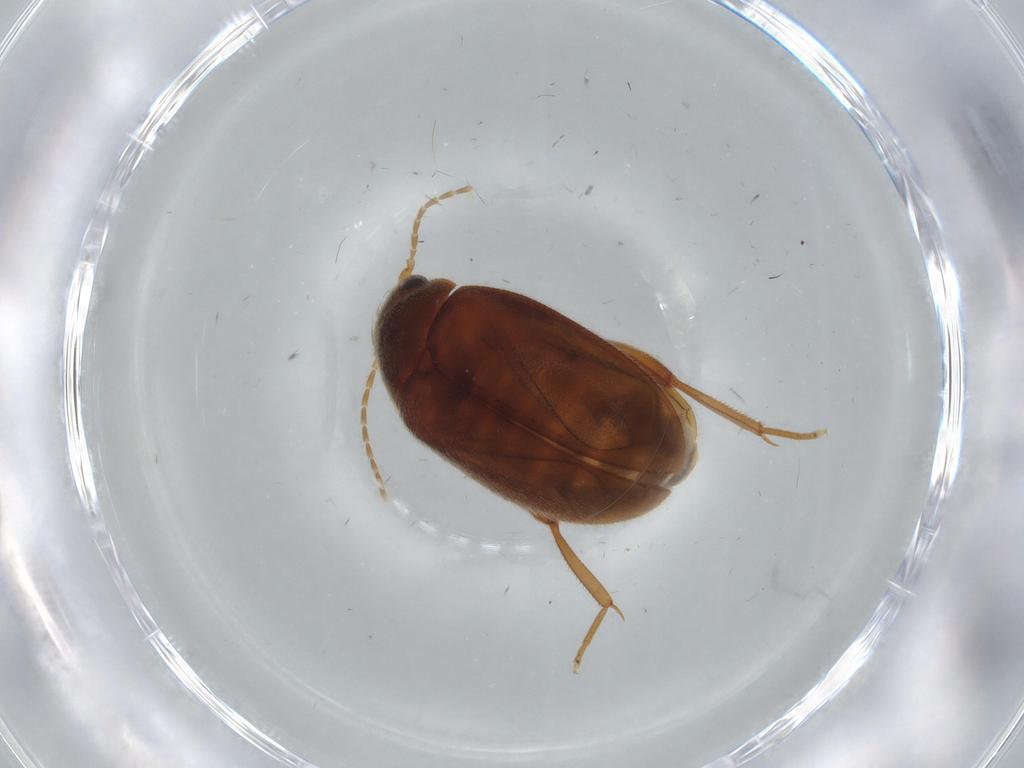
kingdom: Animalia
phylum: Arthropoda
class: Insecta
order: Coleoptera
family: Scirtidae
